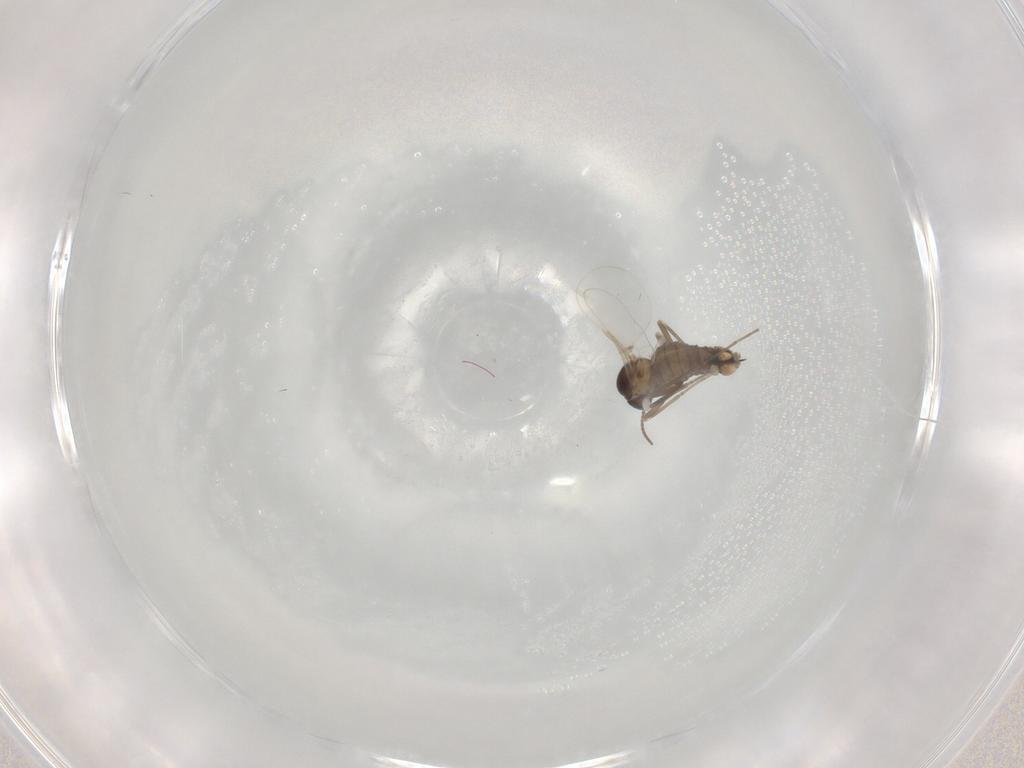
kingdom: Animalia
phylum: Arthropoda
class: Insecta
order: Diptera
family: Cecidomyiidae
